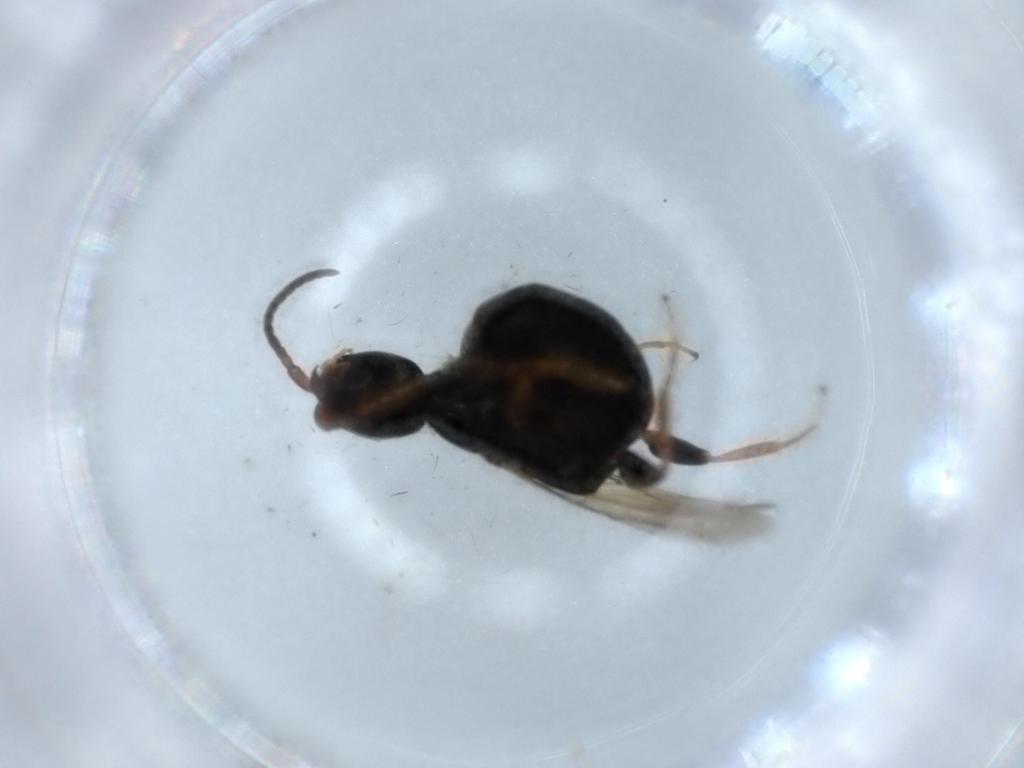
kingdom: Animalia
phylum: Arthropoda
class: Insecta
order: Hymenoptera
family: Bethylidae
